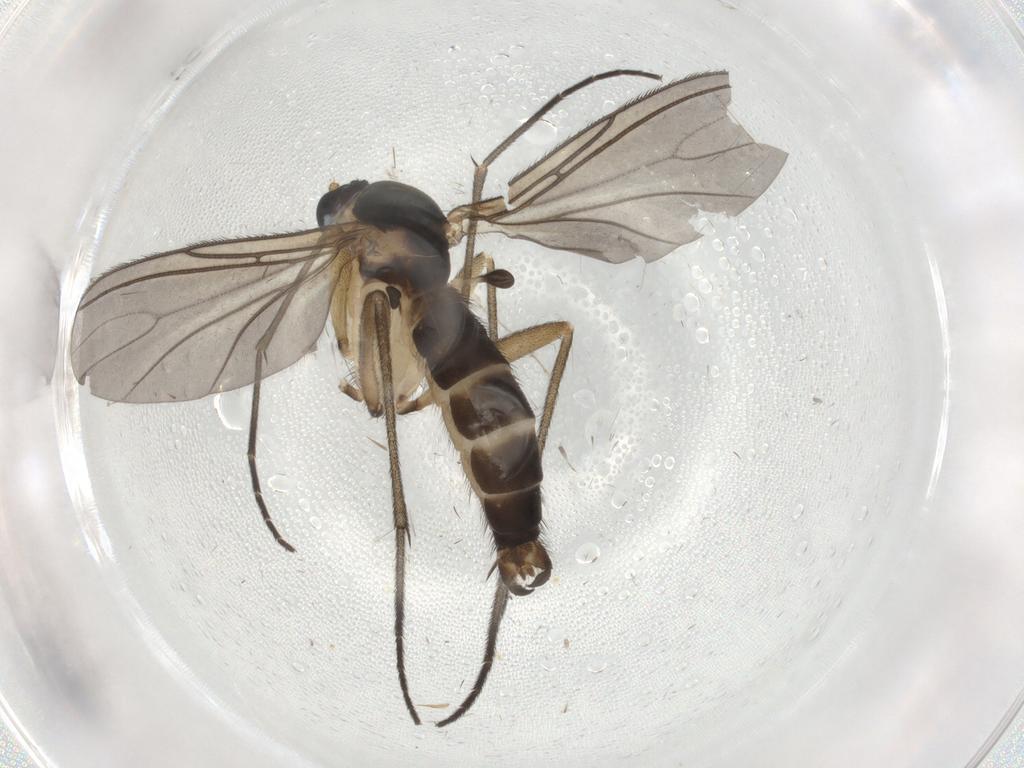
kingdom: Animalia
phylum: Arthropoda
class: Insecta
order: Diptera
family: Sciaridae
